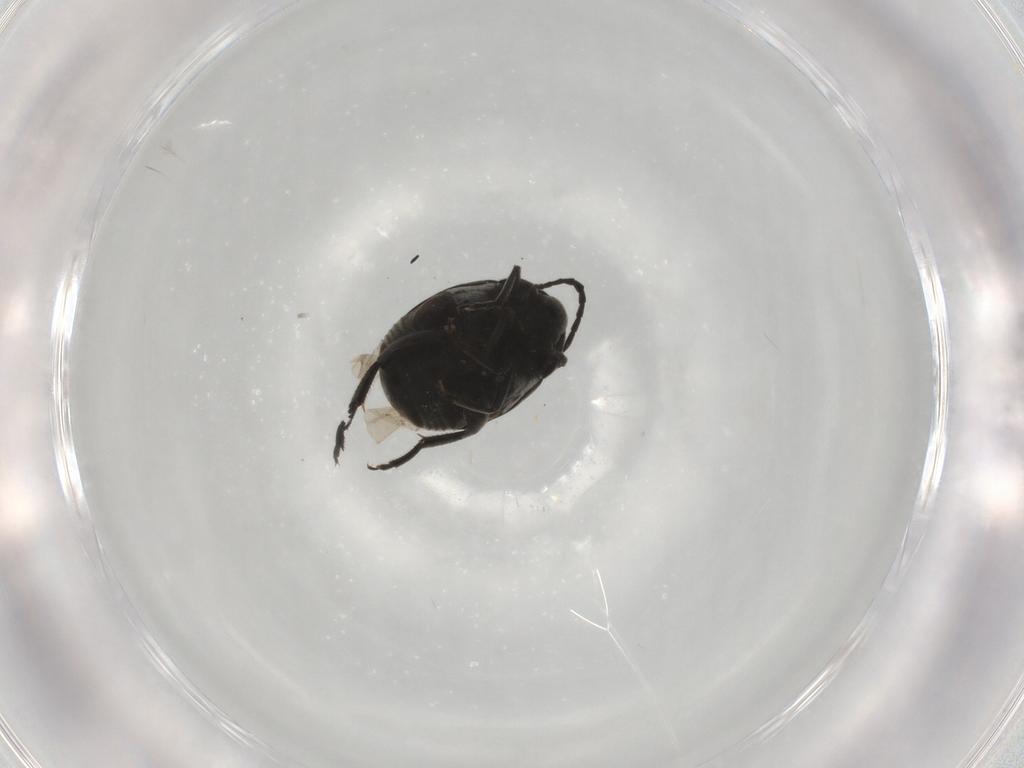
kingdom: Animalia
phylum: Arthropoda
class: Insecta
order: Coleoptera
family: Chrysomelidae
